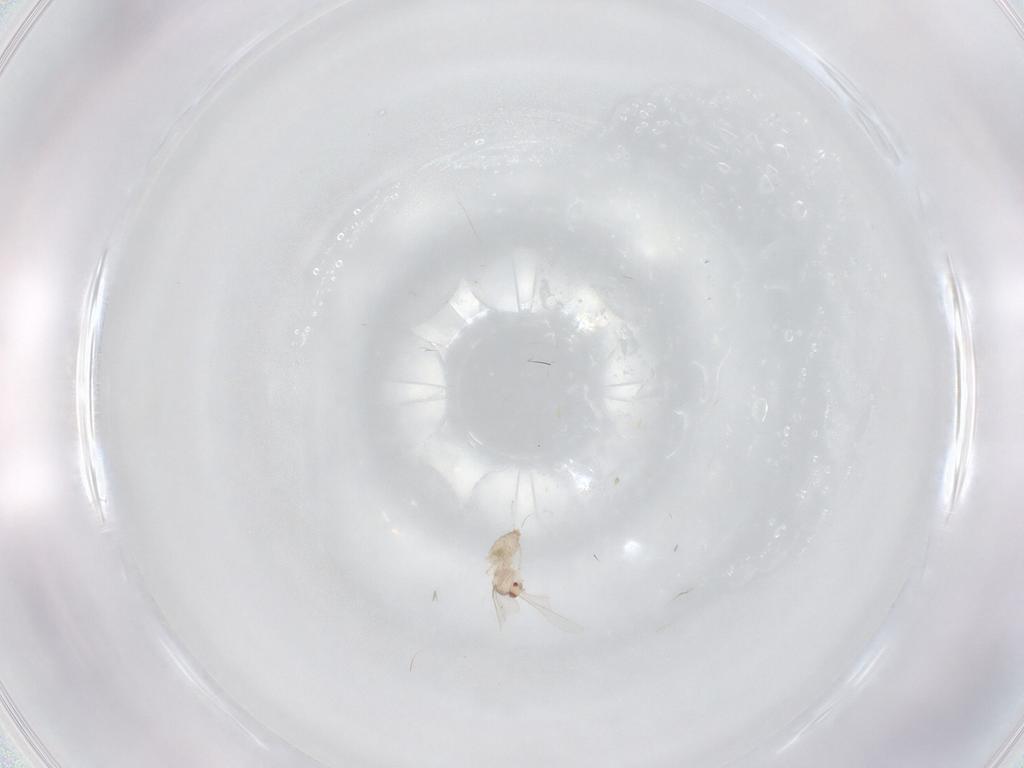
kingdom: Animalia
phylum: Arthropoda
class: Insecta
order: Diptera
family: Cecidomyiidae
